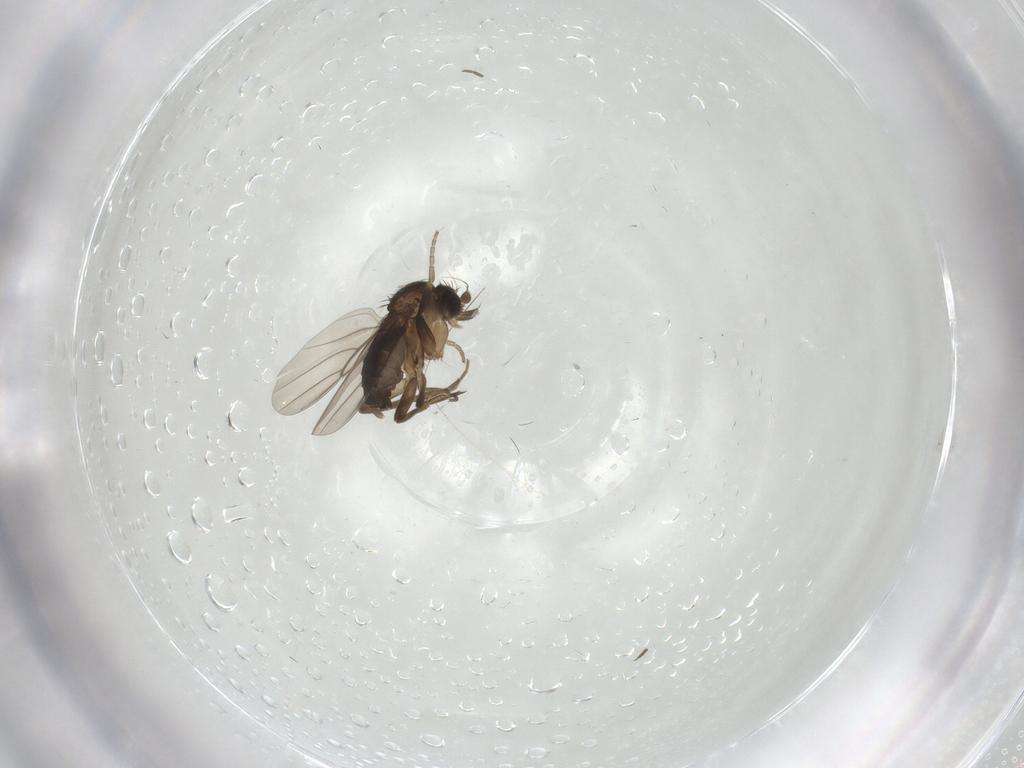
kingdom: Animalia
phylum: Arthropoda
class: Insecta
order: Diptera
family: Phoridae
